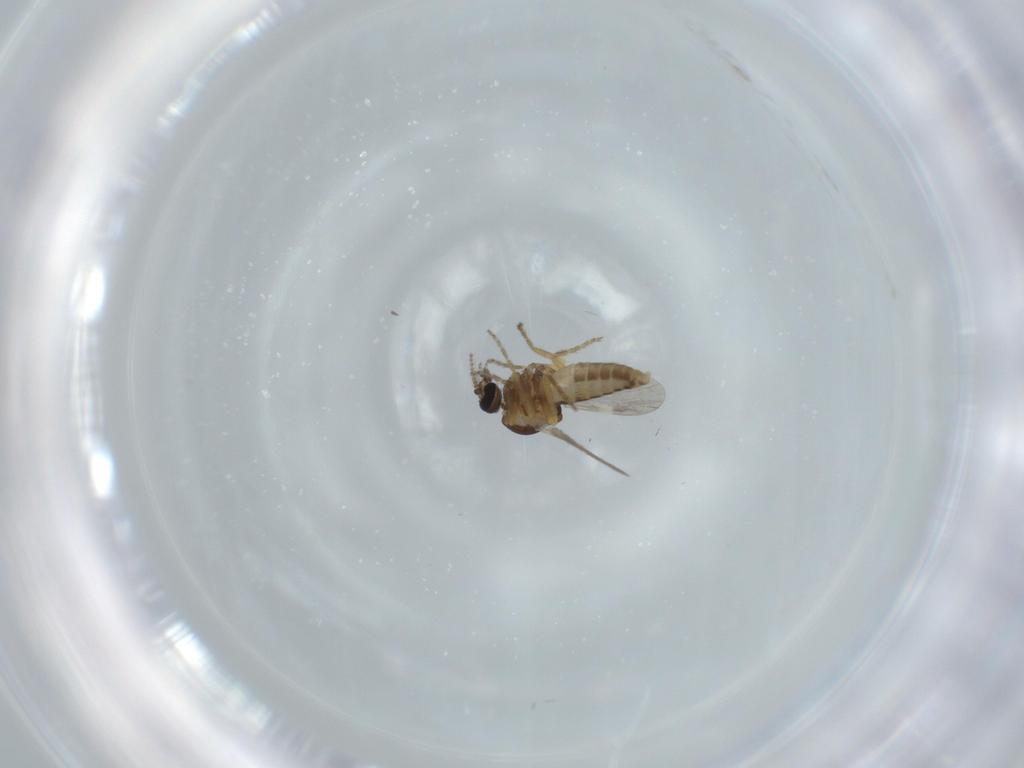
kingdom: Animalia
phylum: Arthropoda
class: Insecta
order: Diptera
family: Ceratopogonidae
